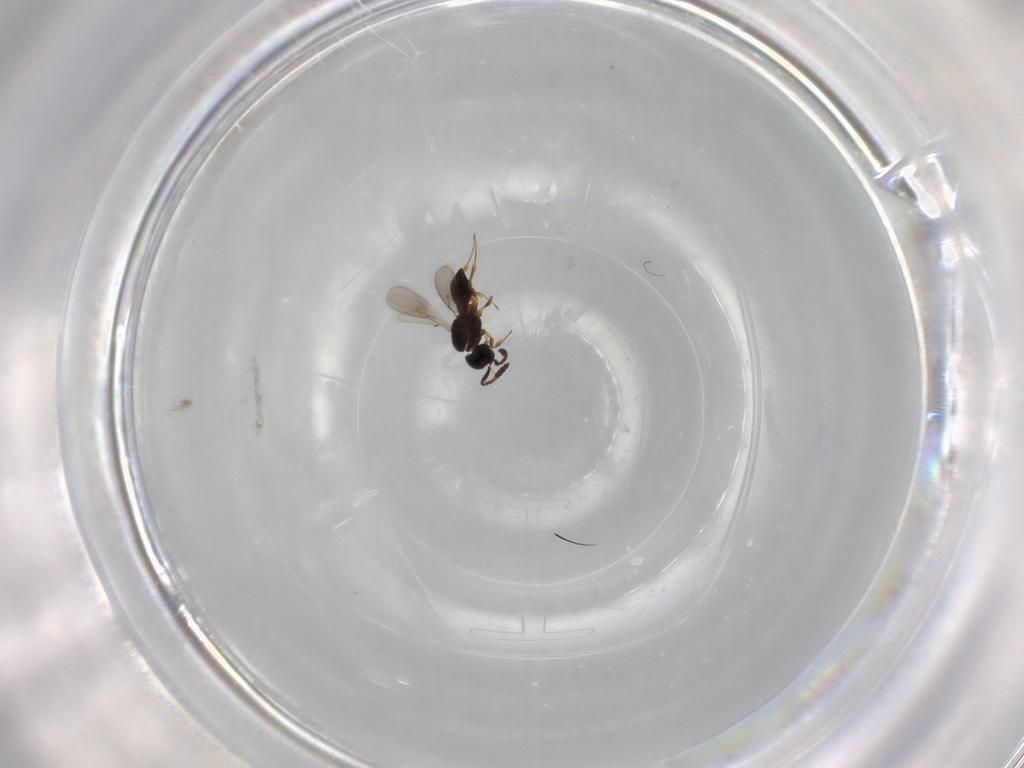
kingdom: Animalia
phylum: Arthropoda
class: Insecta
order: Hymenoptera
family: Scelionidae
